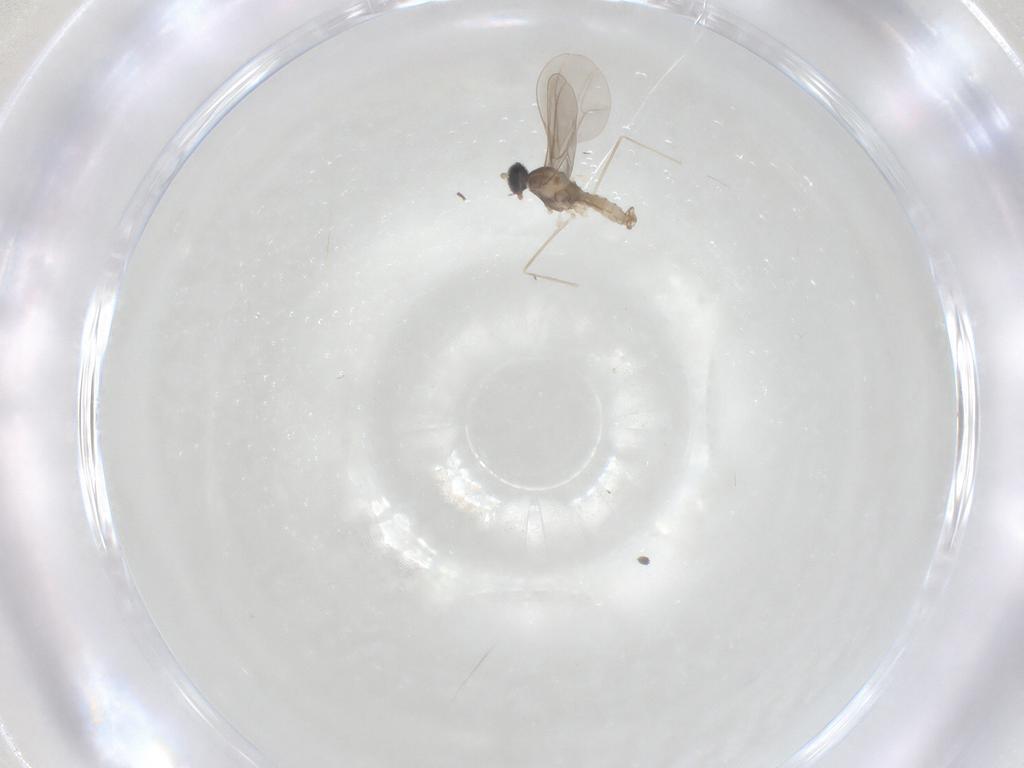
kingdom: Animalia
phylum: Arthropoda
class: Insecta
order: Diptera
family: Cecidomyiidae
